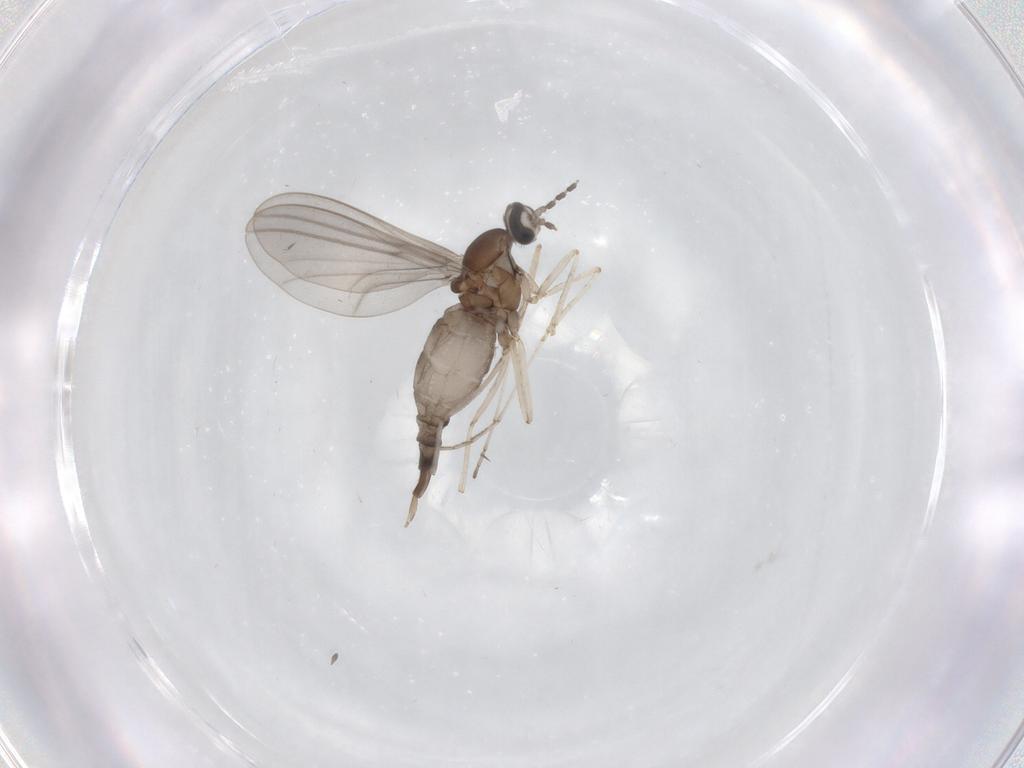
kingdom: Animalia
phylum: Arthropoda
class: Insecta
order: Diptera
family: Cecidomyiidae
